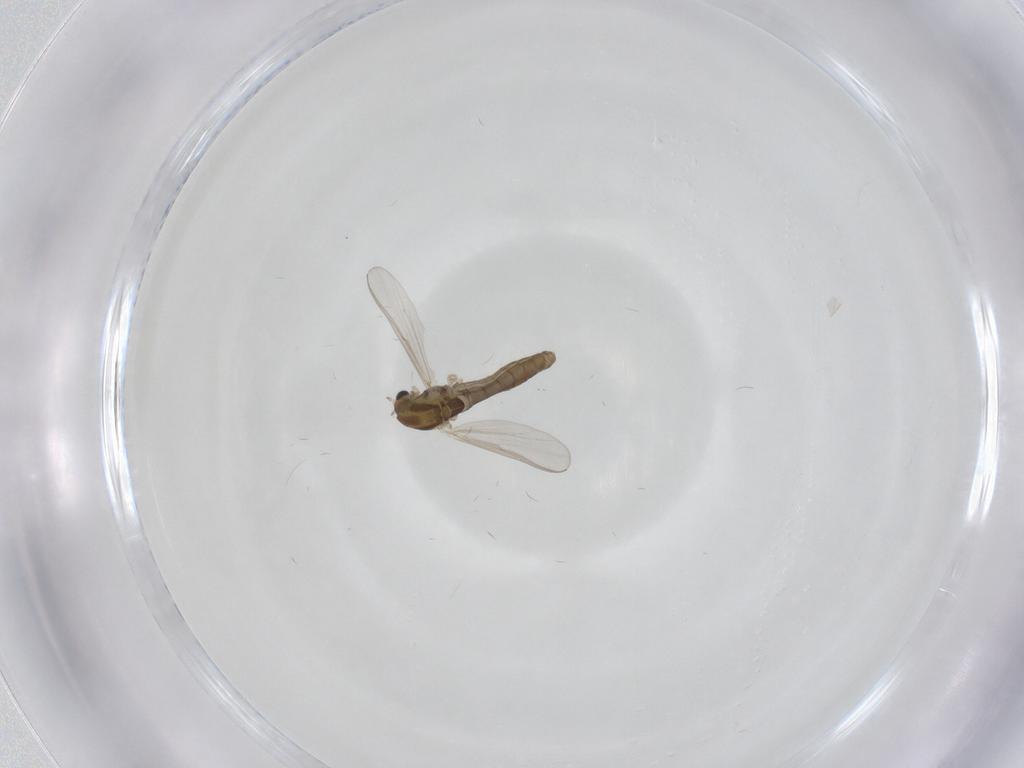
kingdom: Animalia
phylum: Arthropoda
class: Insecta
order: Diptera
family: Chironomidae
